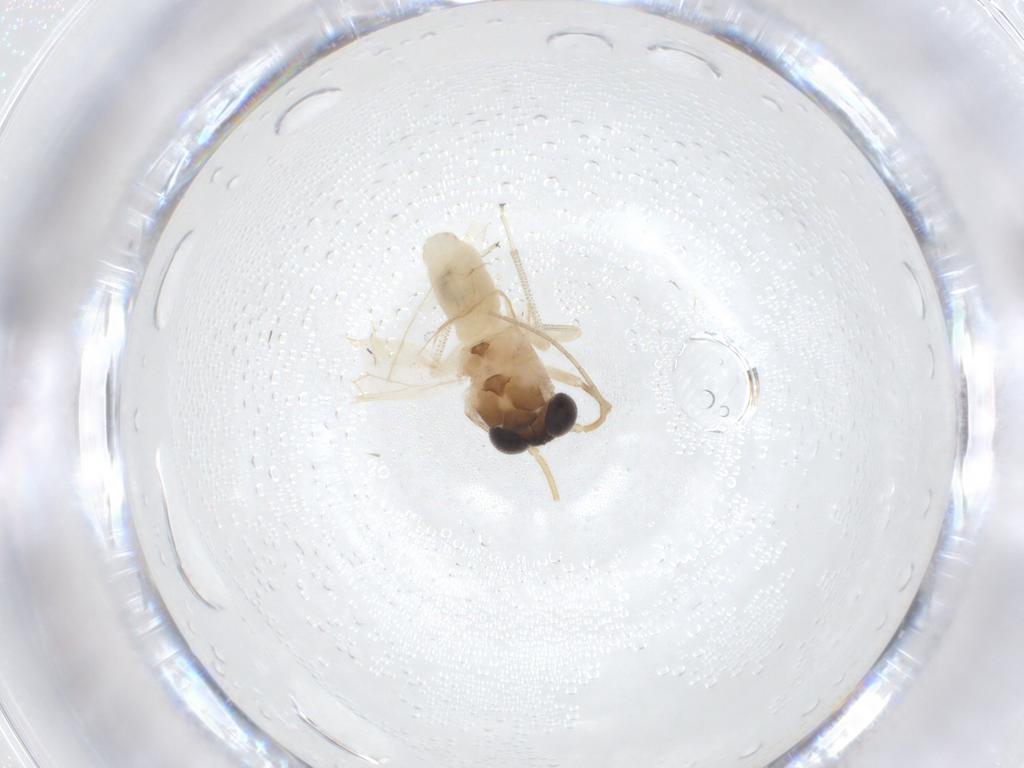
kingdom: Animalia
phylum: Arthropoda
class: Insecta
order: Psocodea
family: Caeciliusidae
